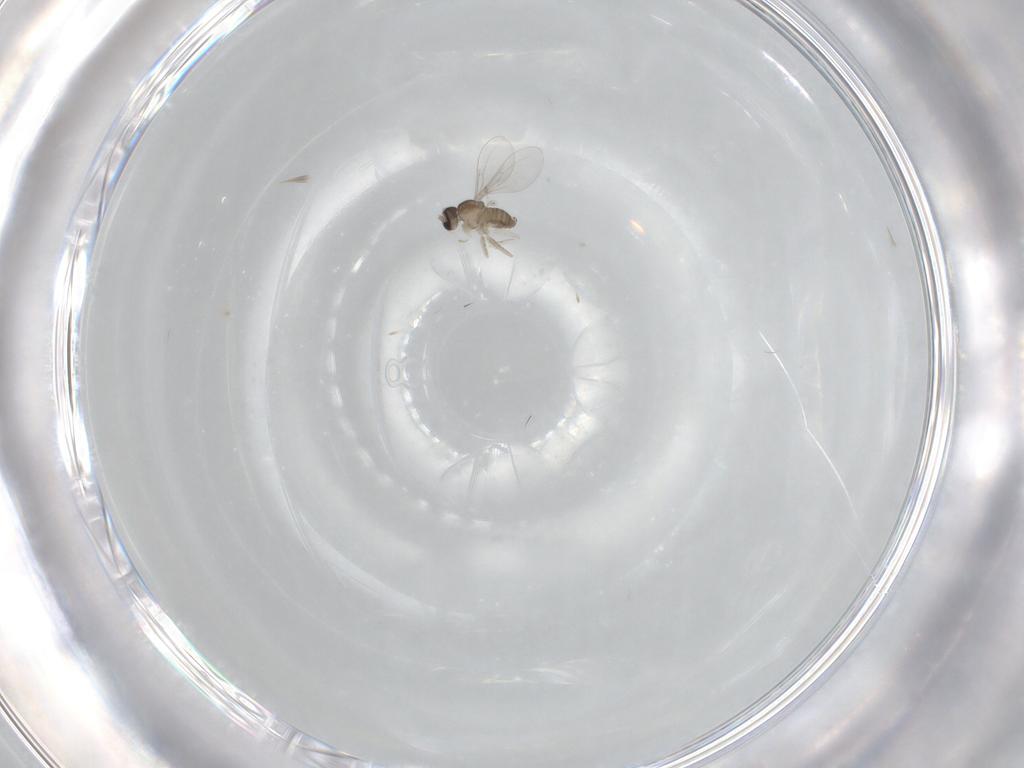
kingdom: Animalia
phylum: Arthropoda
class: Insecta
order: Diptera
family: Cecidomyiidae
